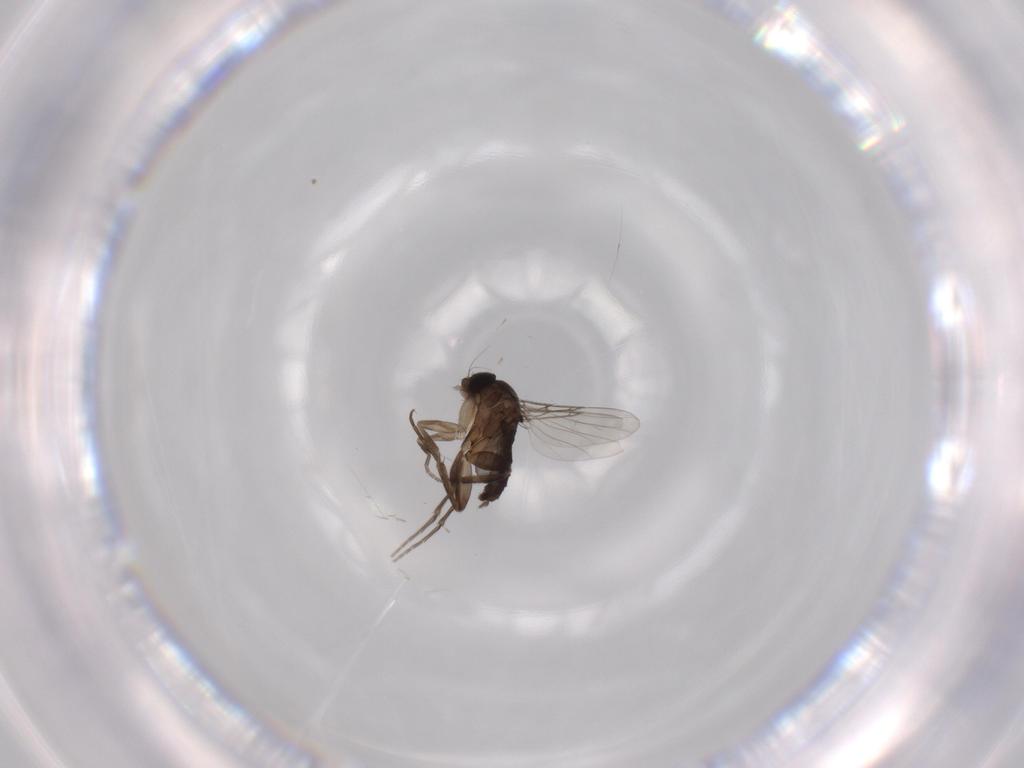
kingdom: Animalia
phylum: Arthropoda
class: Insecta
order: Diptera
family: Phoridae
